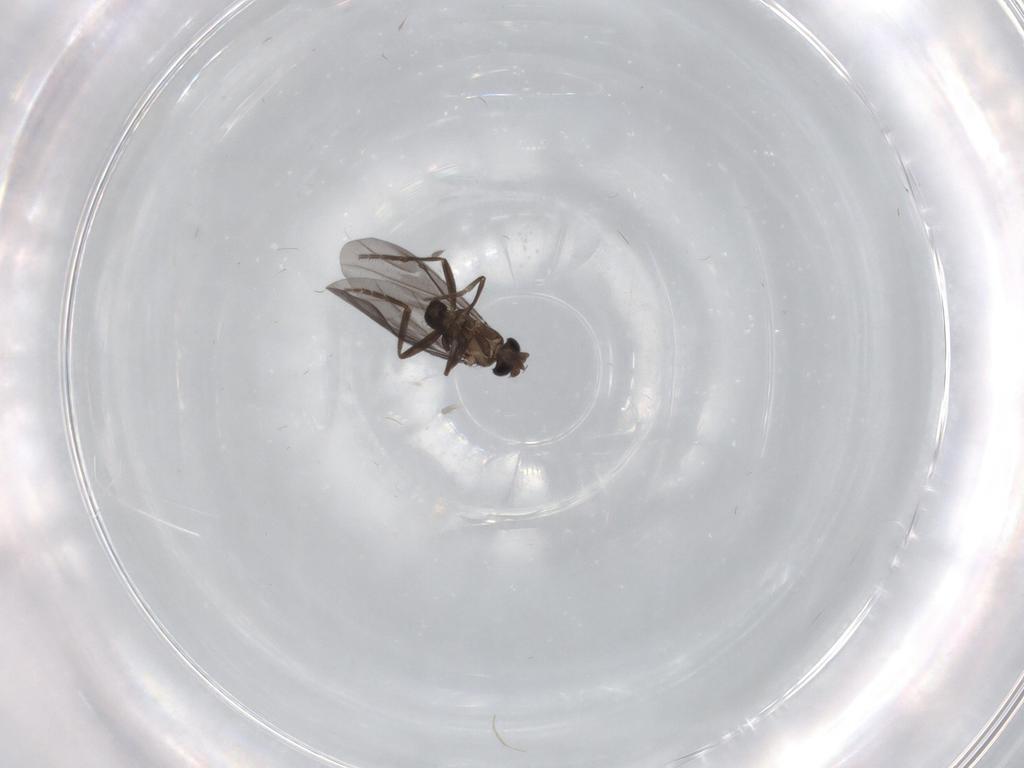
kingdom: Animalia
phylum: Arthropoda
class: Insecta
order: Diptera
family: Phoridae
